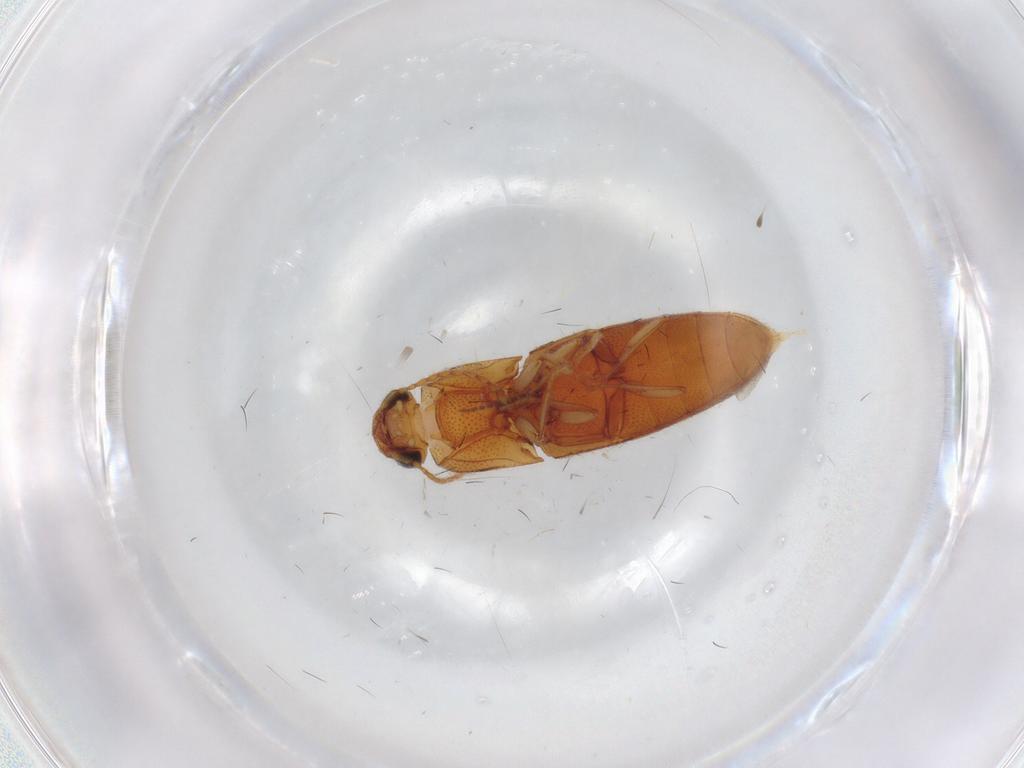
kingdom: Animalia
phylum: Arthropoda
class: Insecta
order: Coleoptera
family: Elateridae
